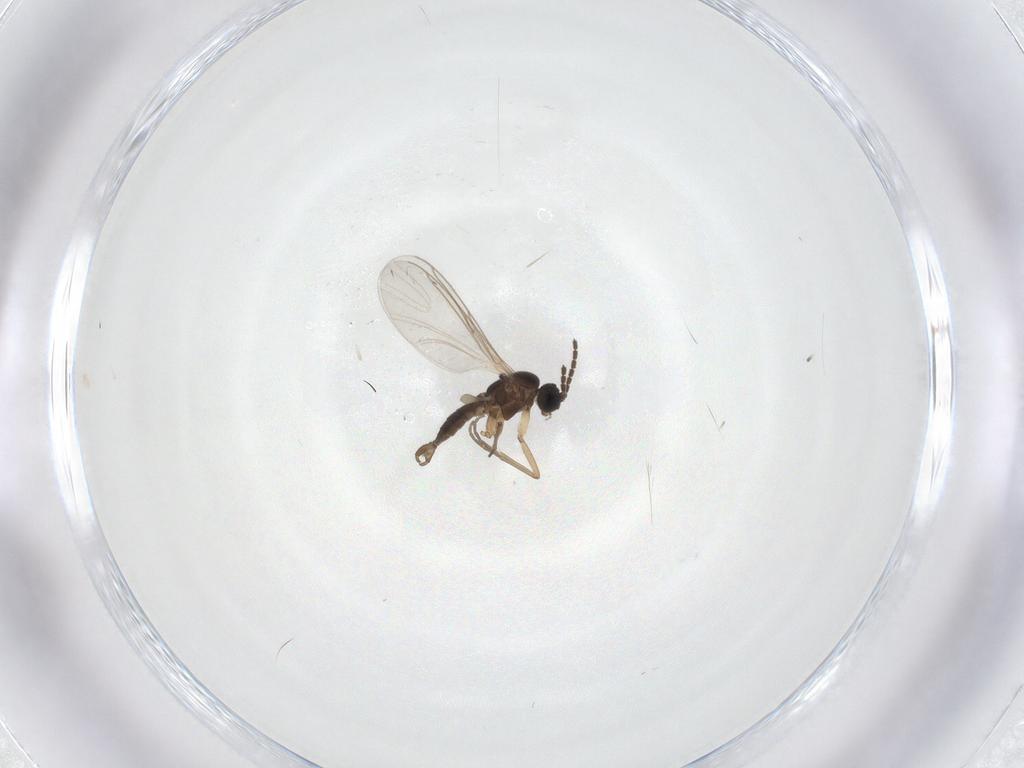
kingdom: Animalia
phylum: Arthropoda
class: Insecta
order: Diptera
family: Sciaridae
